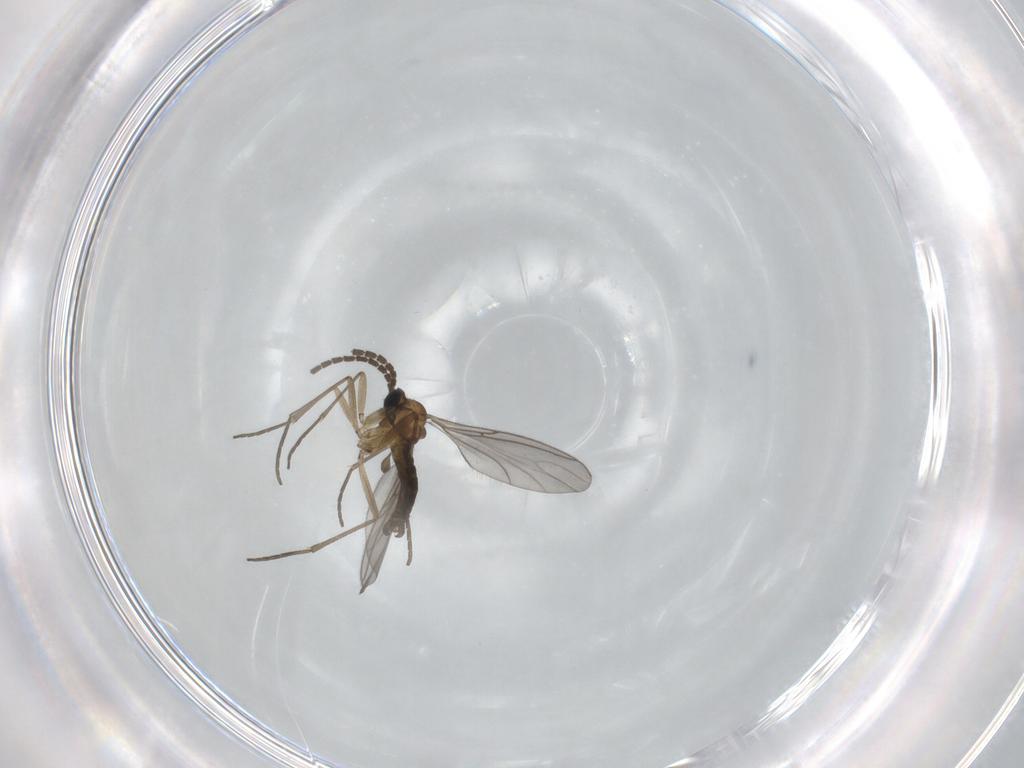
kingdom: Animalia
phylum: Arthropoda
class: Insecta
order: Diptera
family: Sciaridae
